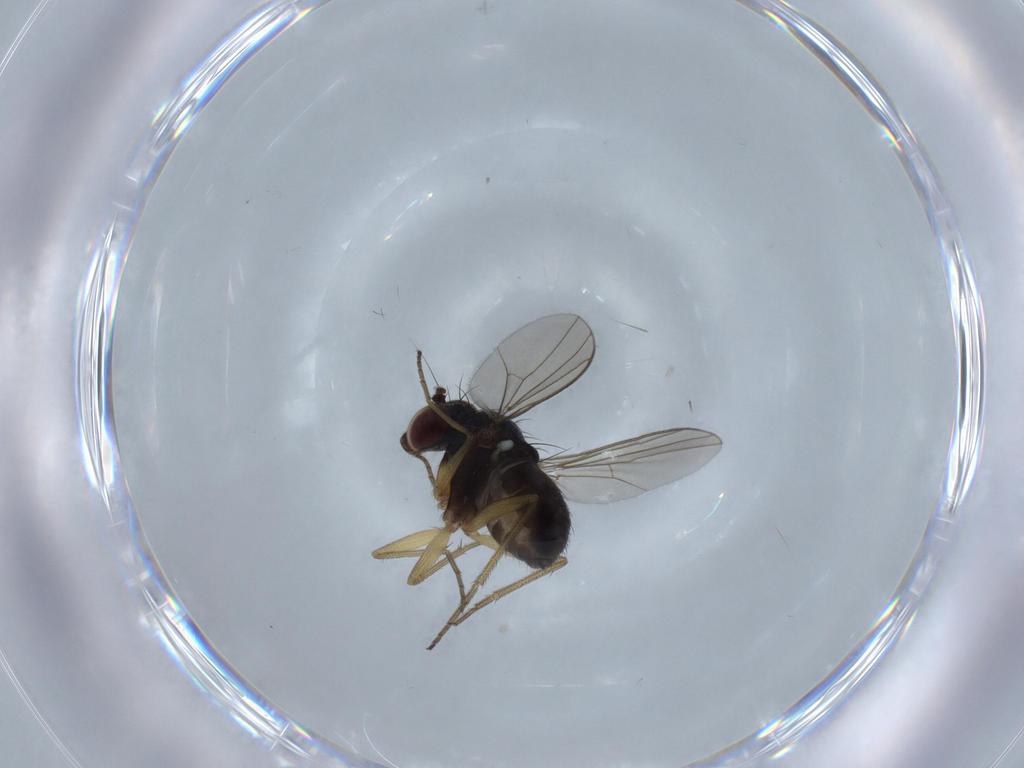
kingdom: Animalia
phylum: Arthropoda
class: Insecta
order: Diptera
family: Dolichopodidae
